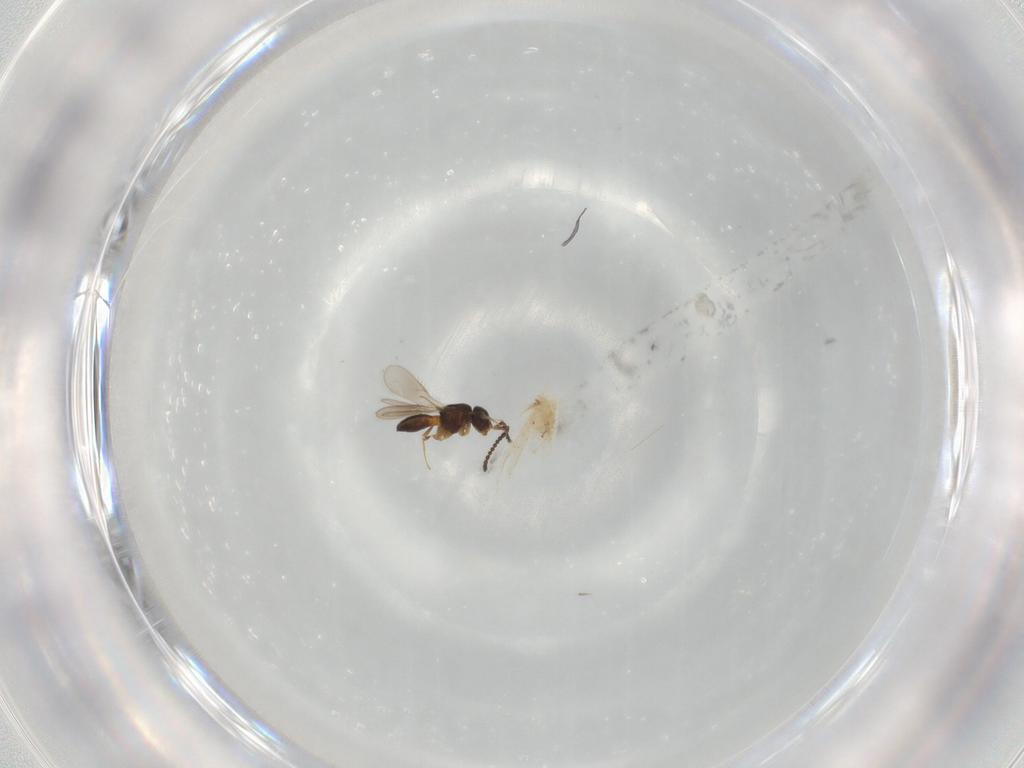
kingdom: Animalia
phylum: Arthropoda
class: Insecta
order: Hymenoptera
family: Scelionidae
